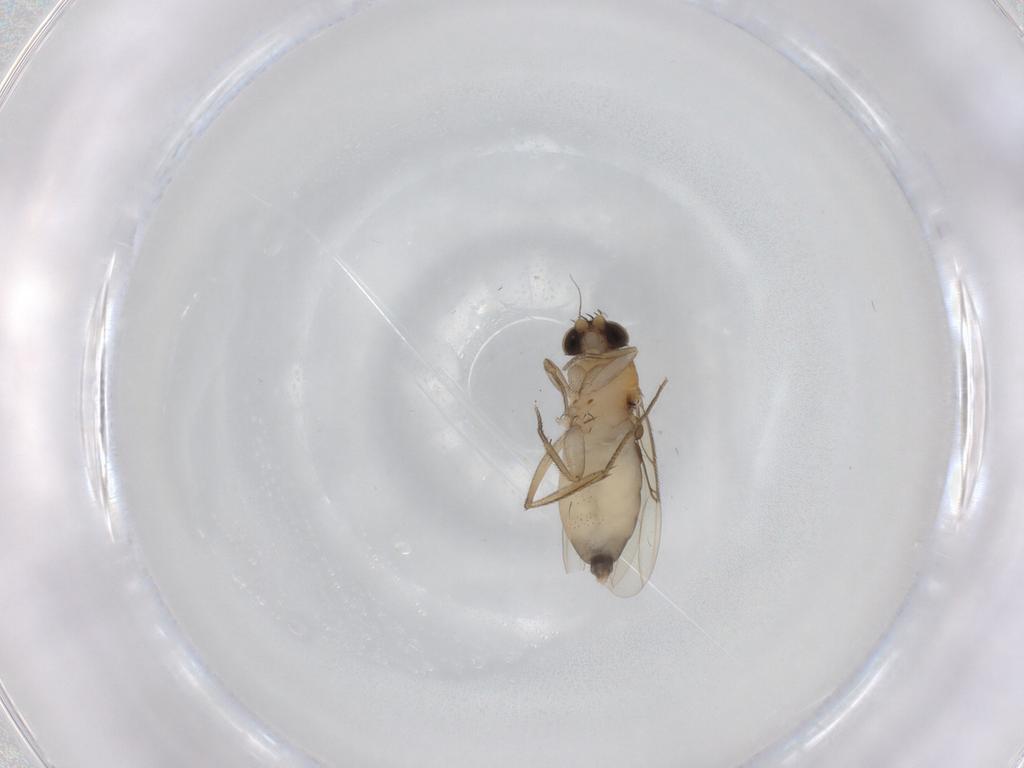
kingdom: Animalia
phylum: Arthropoda
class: Insecta
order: Diptera
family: Phoridae
